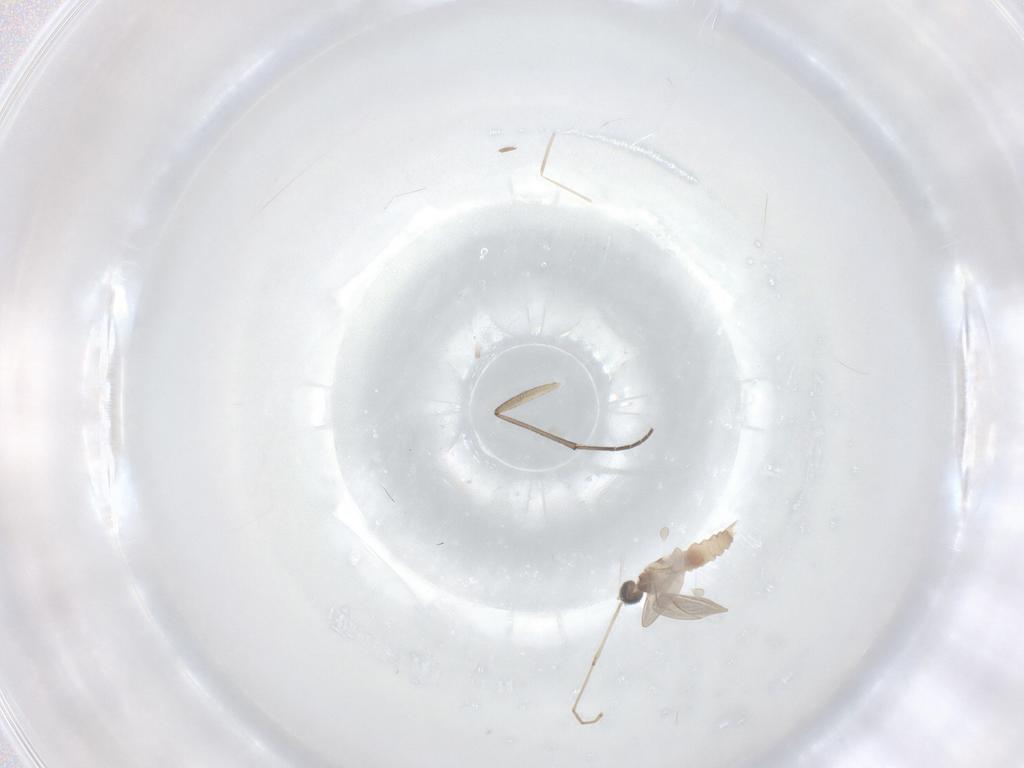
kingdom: Animalia
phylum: Arthropoda
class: Insecta
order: Diptera
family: Cecidomyiidae
